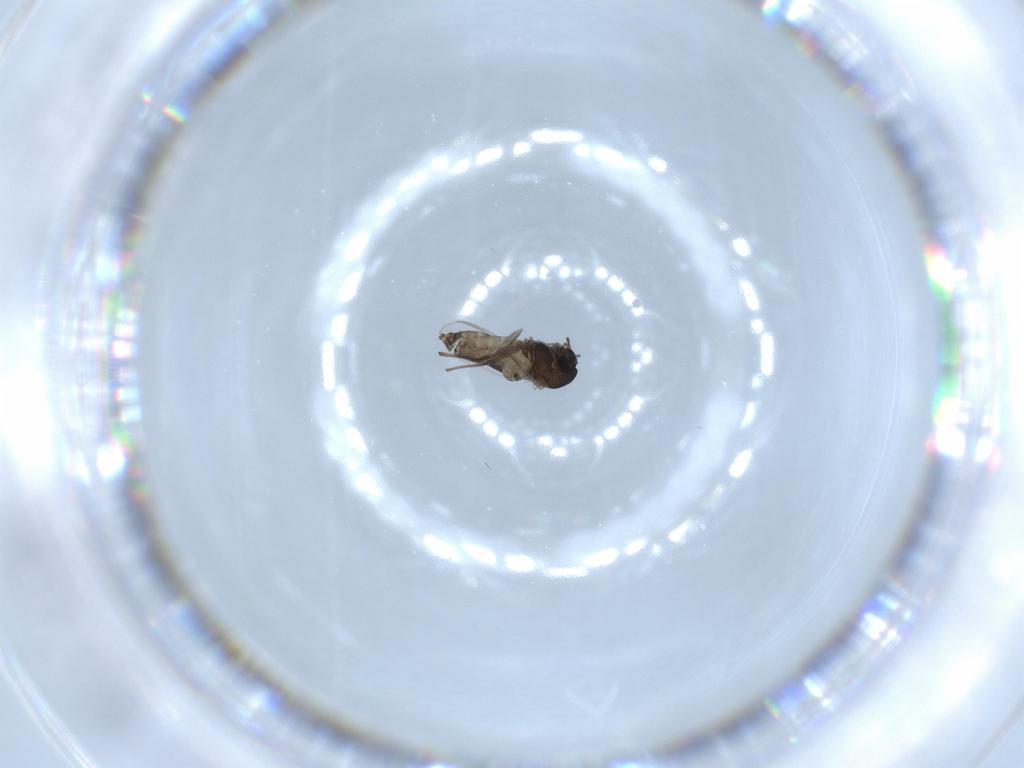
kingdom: Animalia
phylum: Arthropoda
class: Insecta
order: Diptera
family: Chironomidae
